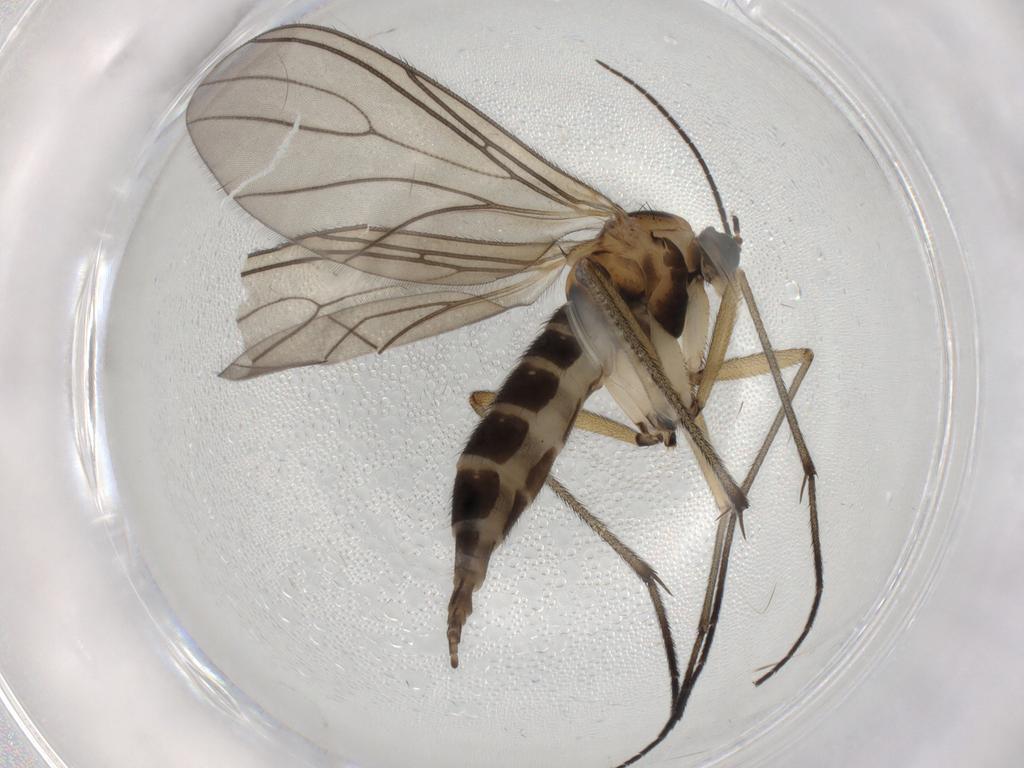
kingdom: Animalia
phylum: Arthropoda
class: Insecta
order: Diptera
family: Sciaridae
